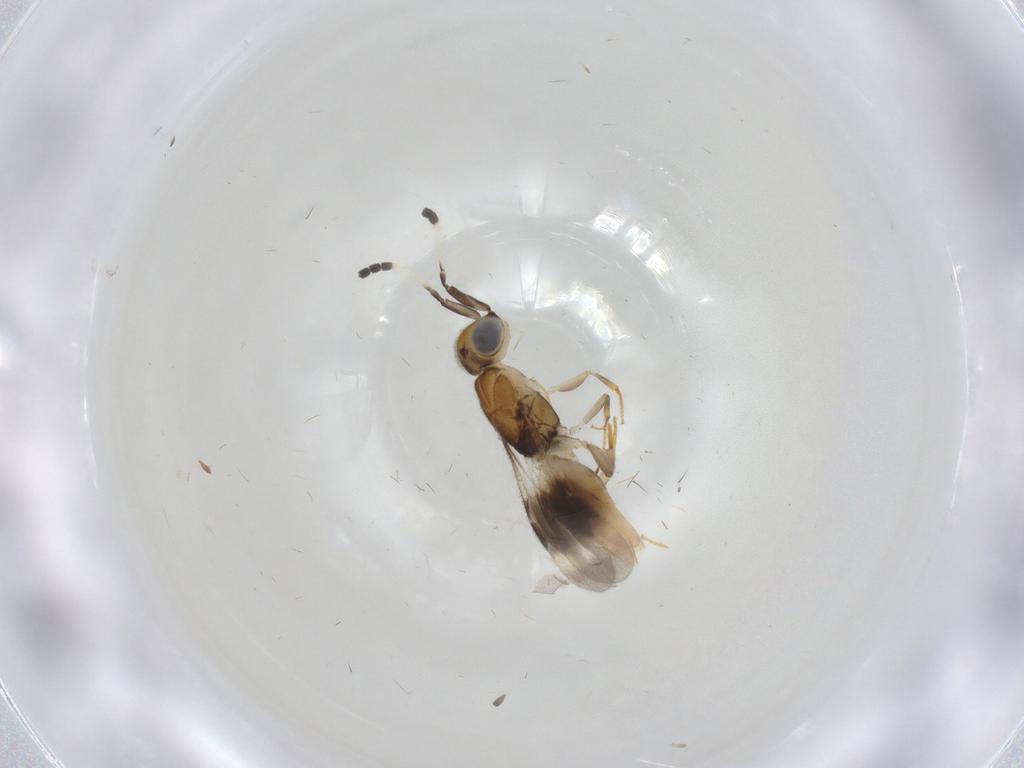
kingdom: Animalia
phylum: Arthropoda
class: Insecta
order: Hymenoptera
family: Megaspilidae
